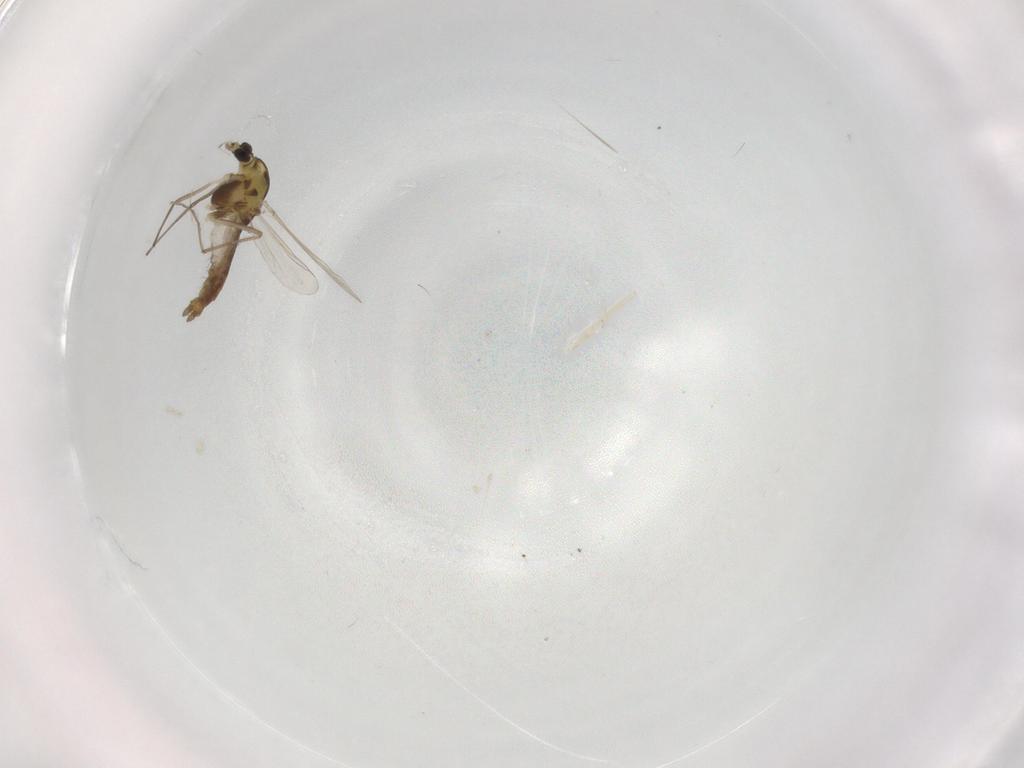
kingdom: Animalia
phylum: Arthropoda
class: Insecta
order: Diptera
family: Chironomidae
